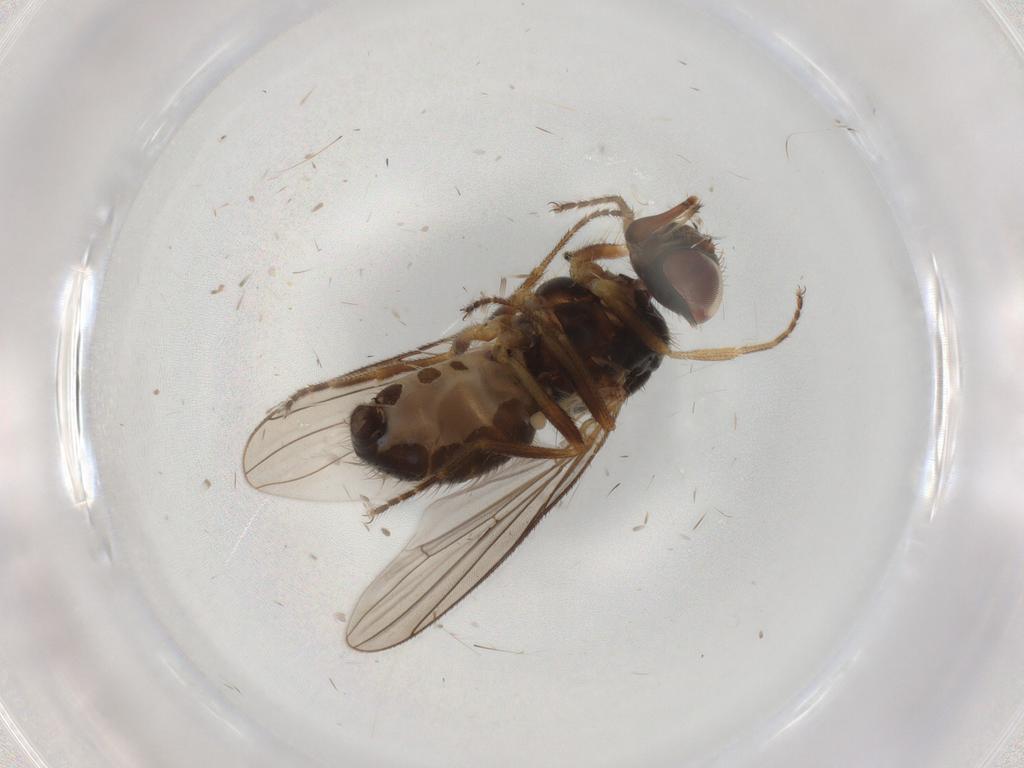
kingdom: Animalia
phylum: Arthropoda
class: Insecta
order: Diptera
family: Muscidae
